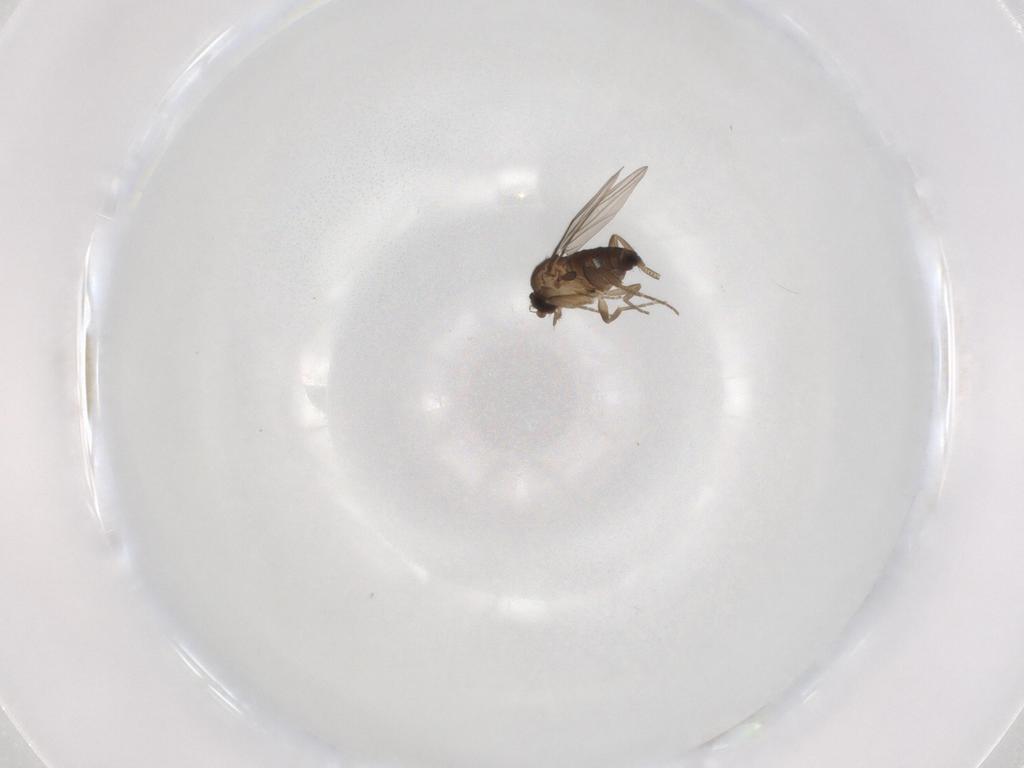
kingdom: Animalia
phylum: Arthropoda
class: Insecta
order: Diptera
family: Phoridae
